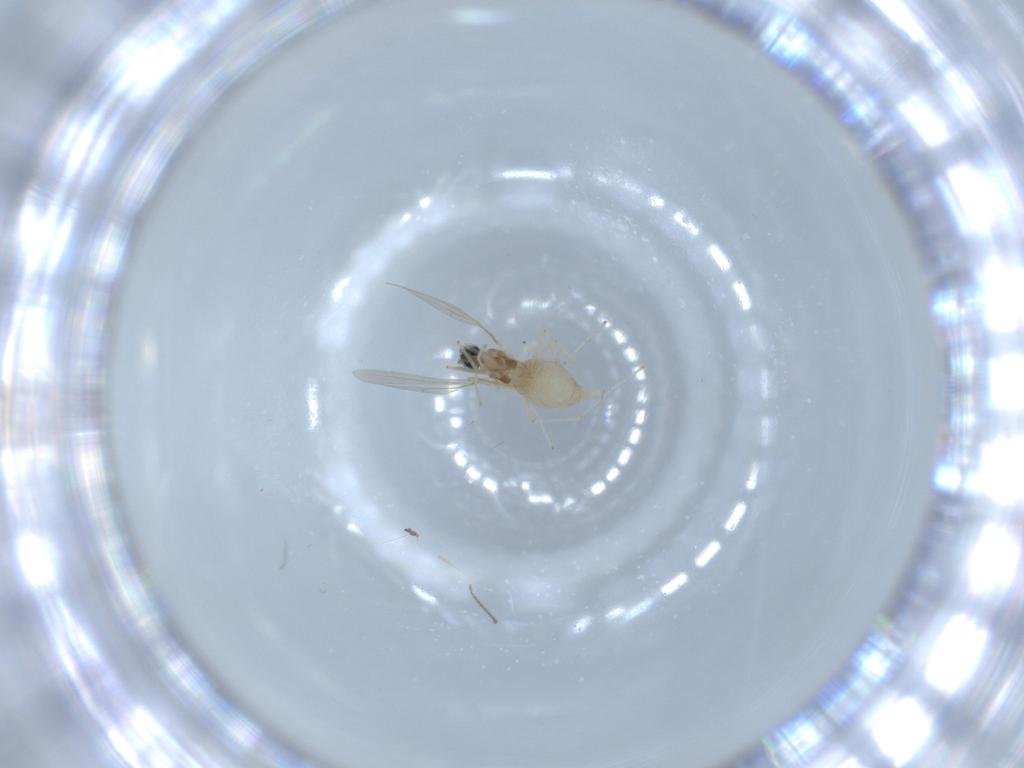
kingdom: Animalia
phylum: Arthropoda
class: Insecta
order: Diptera
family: Cecidomyiidae
